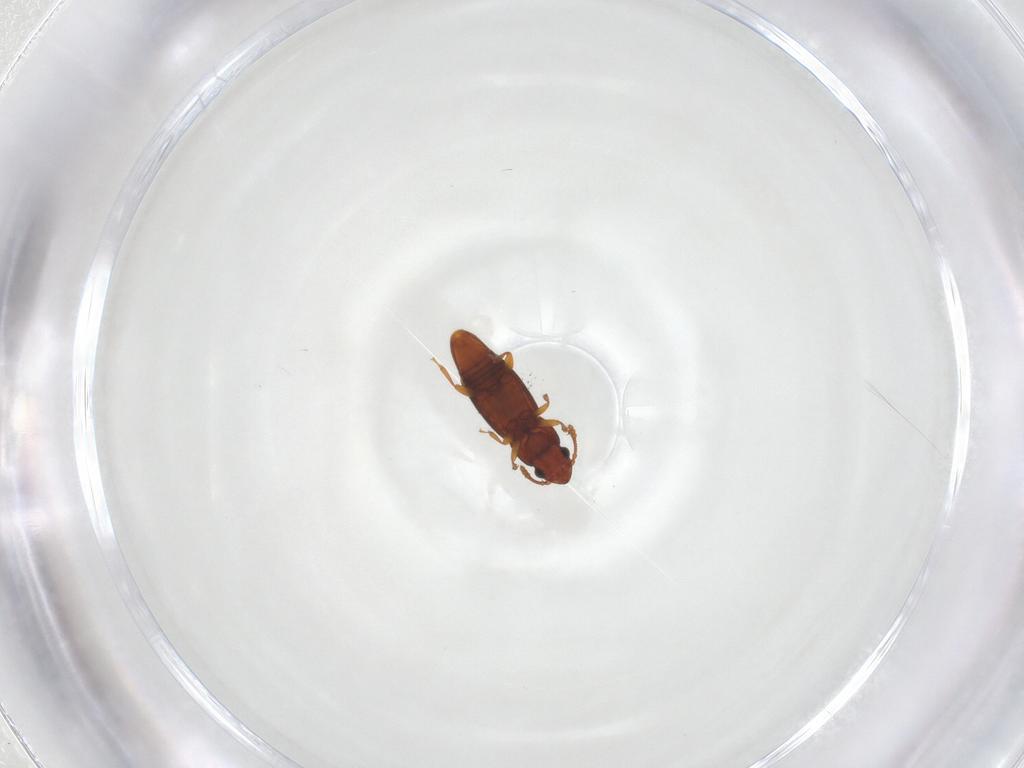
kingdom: Animalia
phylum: Arthropoda
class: Insecta
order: Coleoptera
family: Smicripidae
